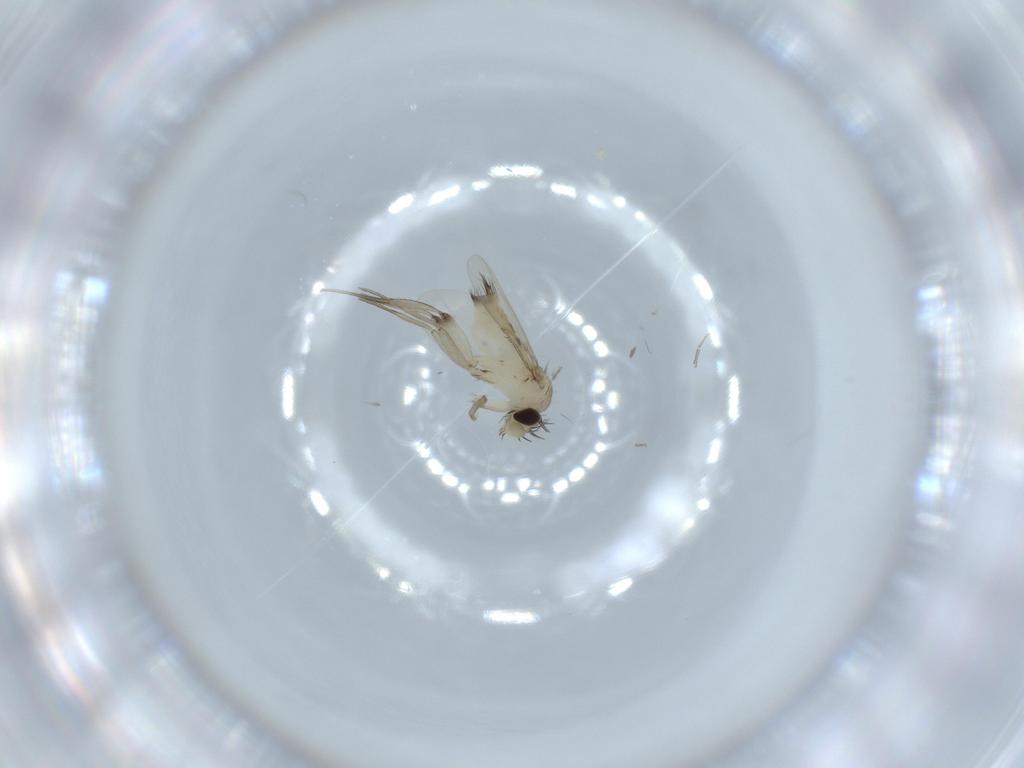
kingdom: Animalia
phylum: Arthropoda
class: Insecta
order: Diptera
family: Phoridae
